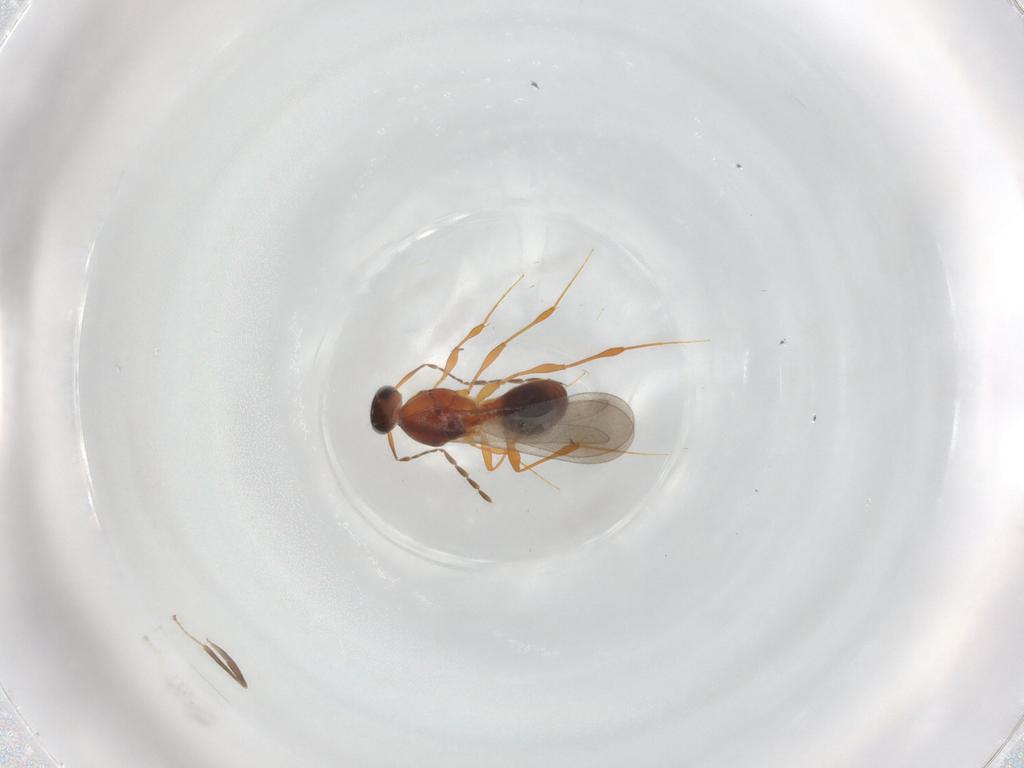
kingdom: Animalia
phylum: Arthropoda
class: Insecta
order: Hymenoptera
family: Platygastridae
